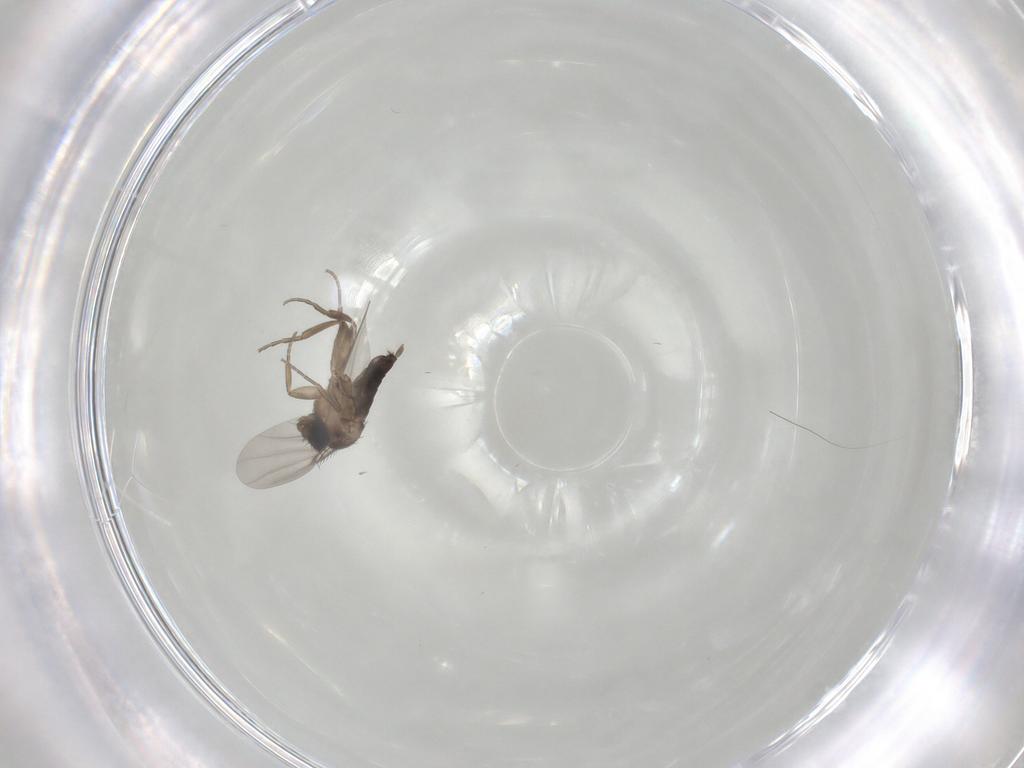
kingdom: Animalia
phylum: Arthropoda
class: Insecta
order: Diptera
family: Phoridae
